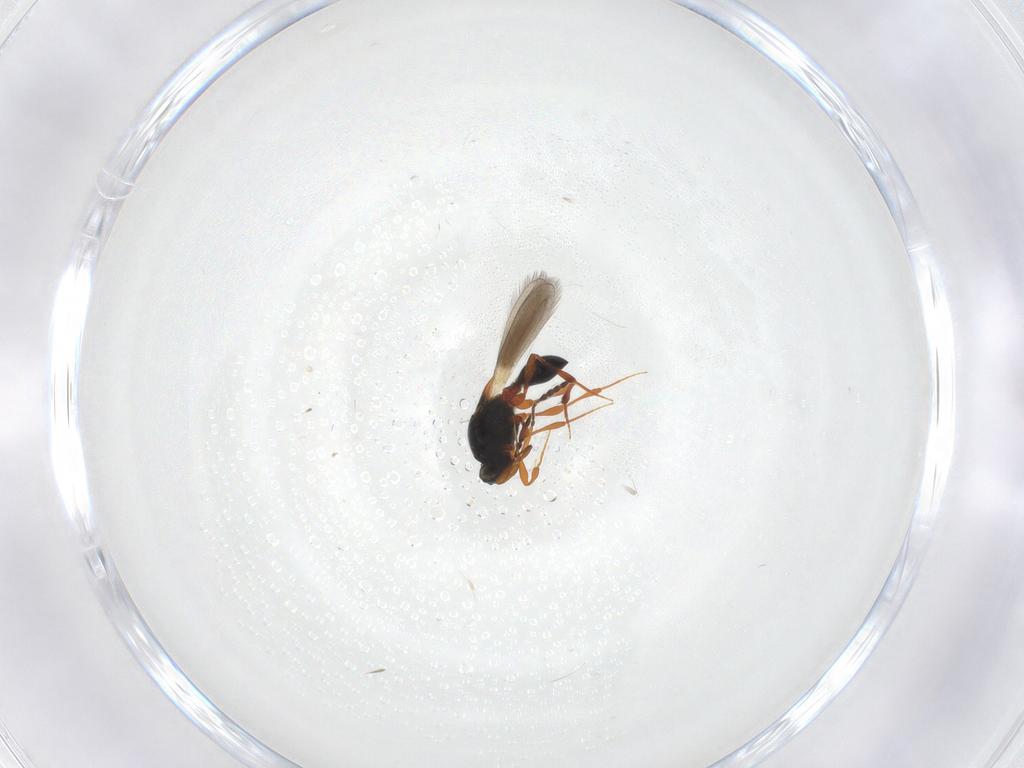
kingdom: Animalia
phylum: Arthropoda
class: Insecta
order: Hymenoptera
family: Platygastridae
